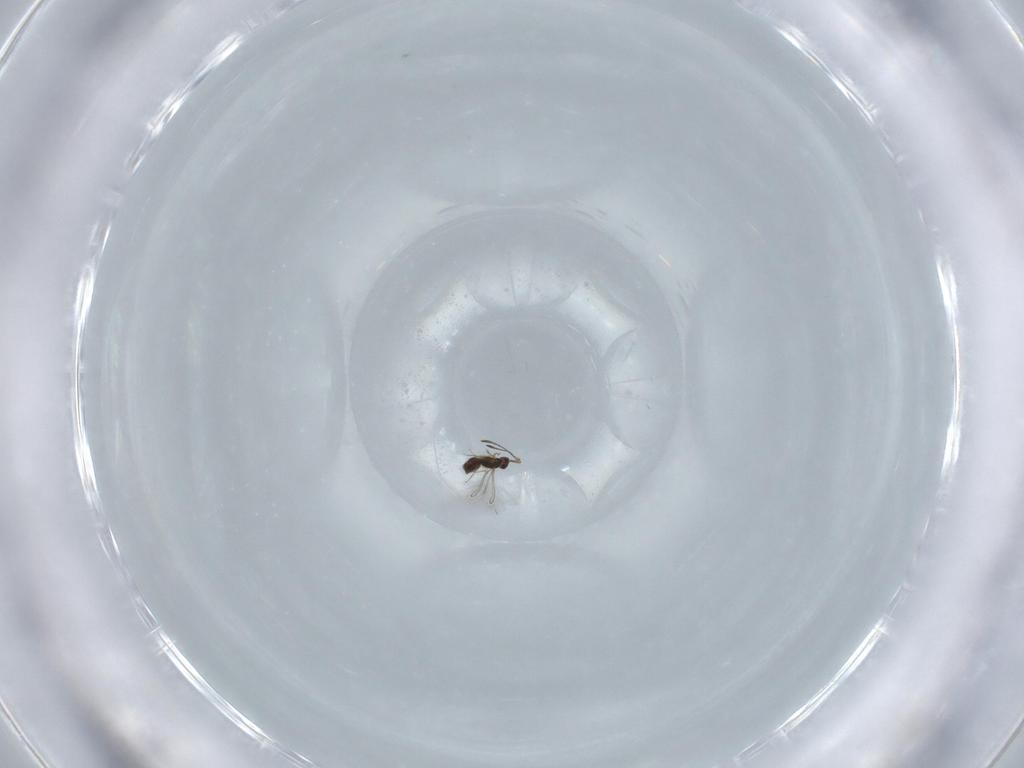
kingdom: Animalia
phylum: Arthropoda
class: Insecta
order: Hymenoptera
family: Mymaridae
